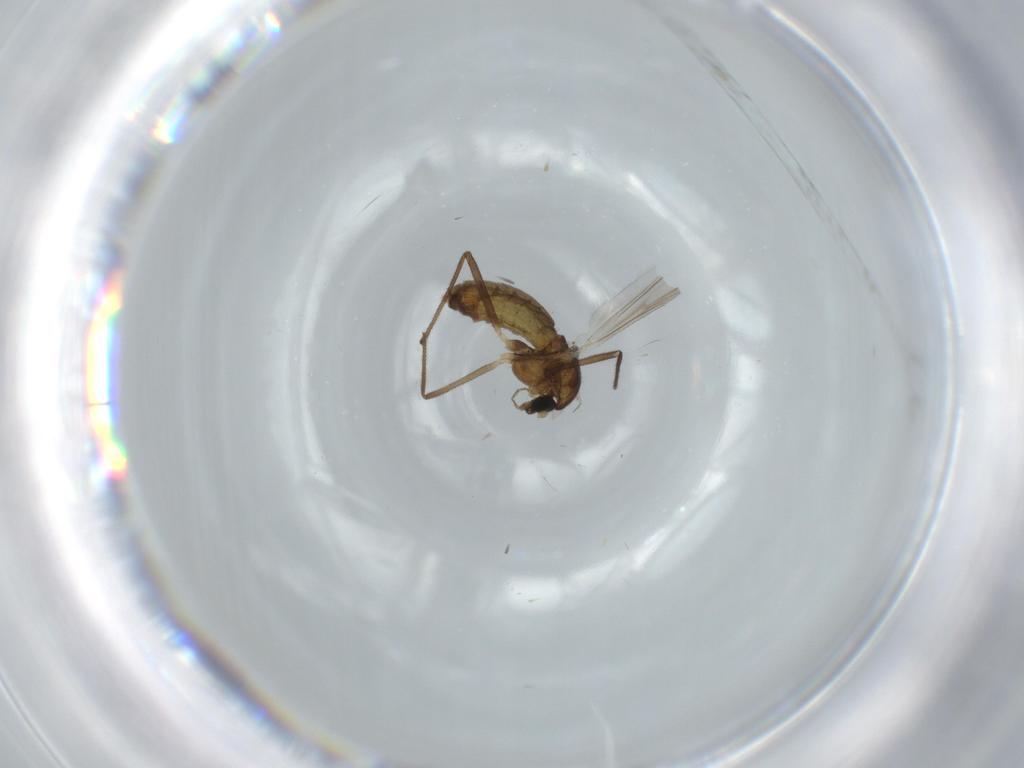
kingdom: Animalia
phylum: Arthropoda
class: Insecta
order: Diptera
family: Chironomidae
